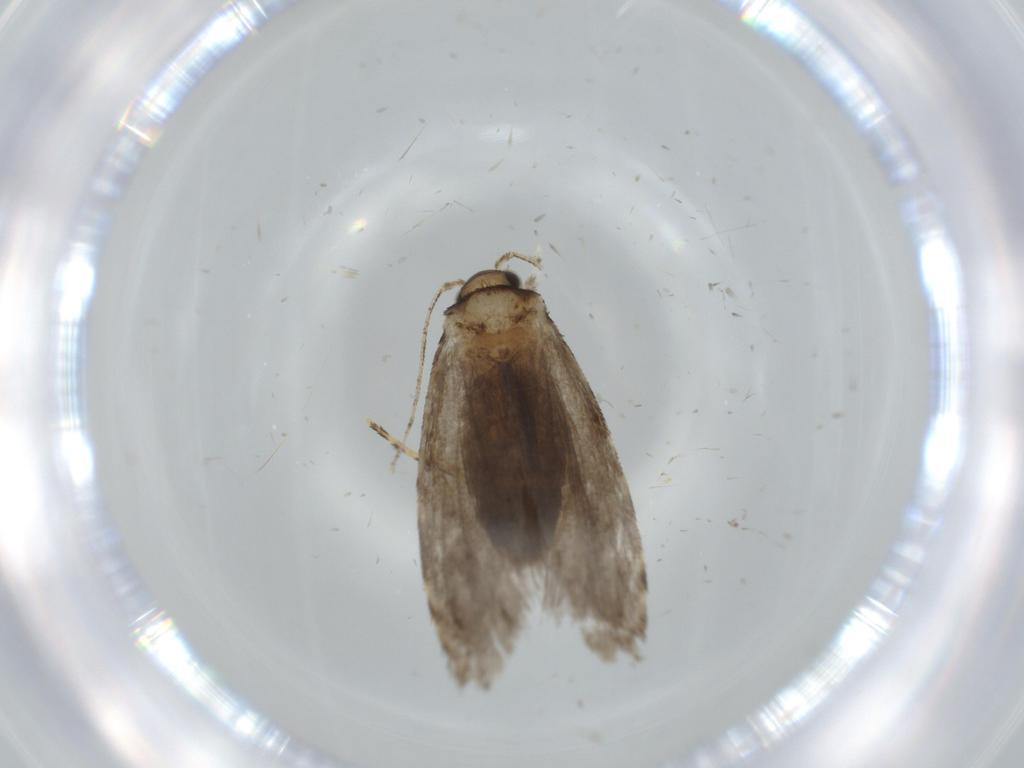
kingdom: Animalia
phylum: Arthropoda
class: Insecta
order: Lepidoptera
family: Tineidae
